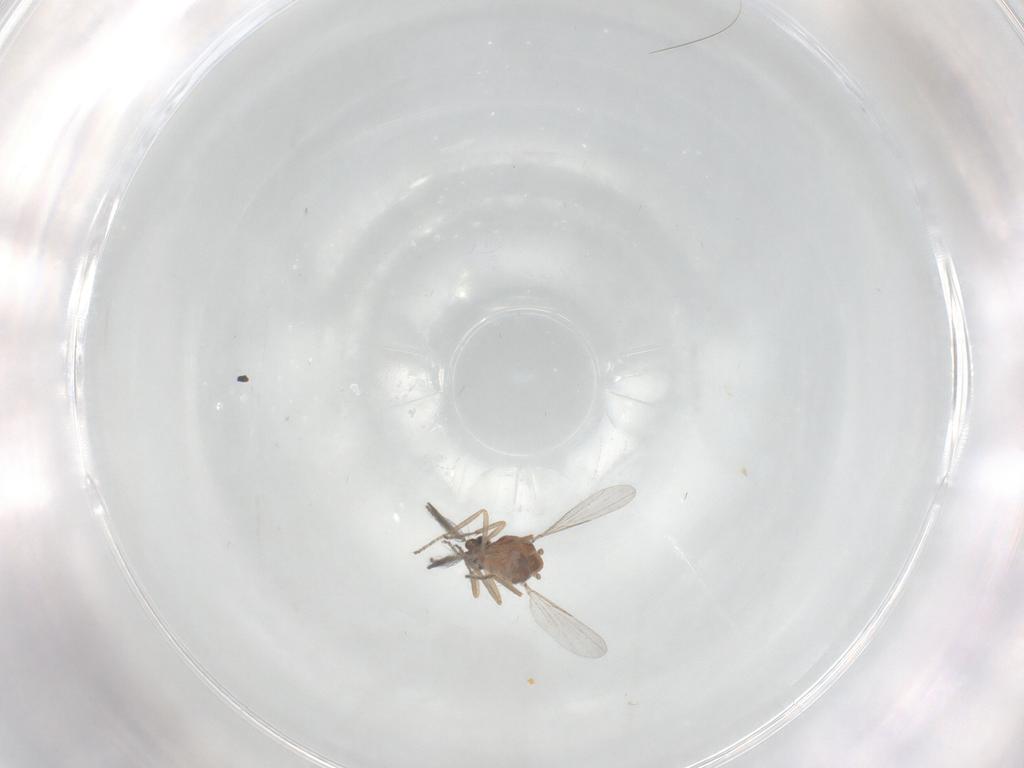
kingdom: Animalia
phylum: Arthropoda
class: Insecta
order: Diptera
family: Ceratopogonidae
